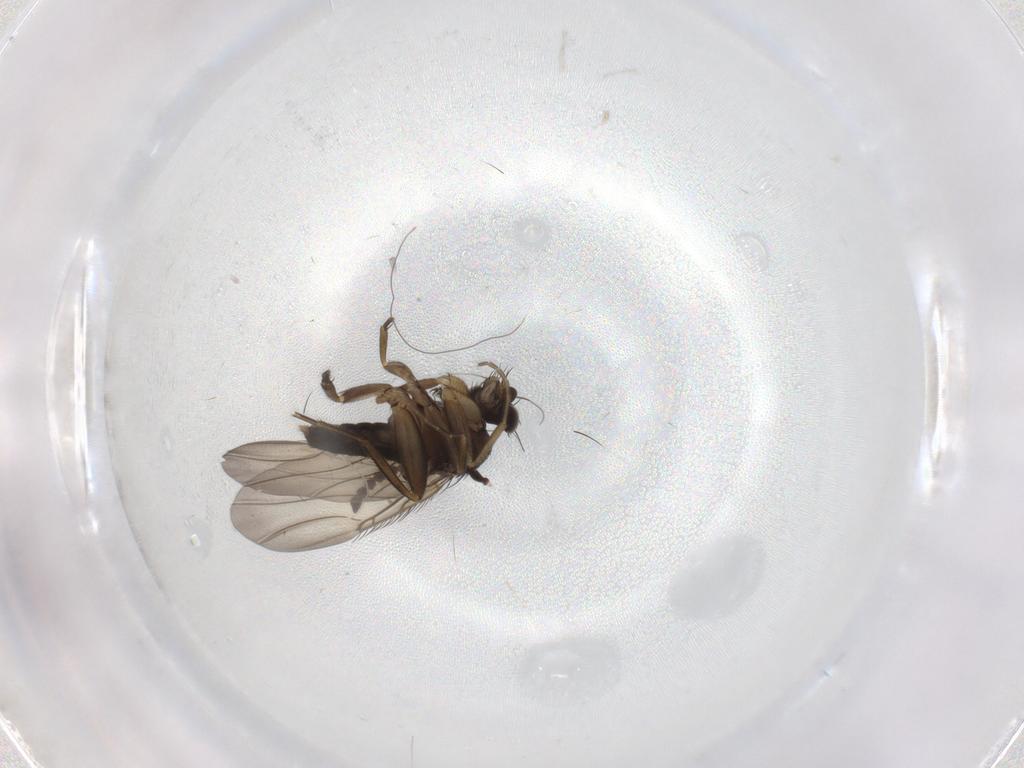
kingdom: Animalia
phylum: Arthropoda
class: Insecta
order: Diptera
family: Phoridae
